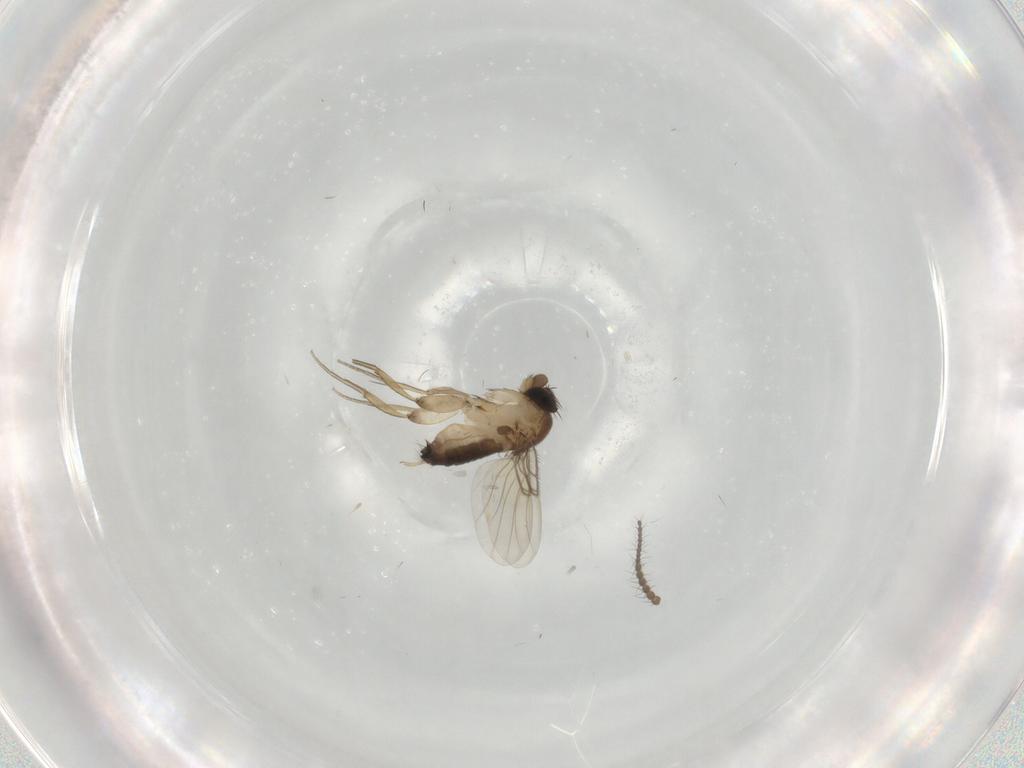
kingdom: Animalia
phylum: Arthropoda
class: Insecta
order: Diptera
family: Phoridae
